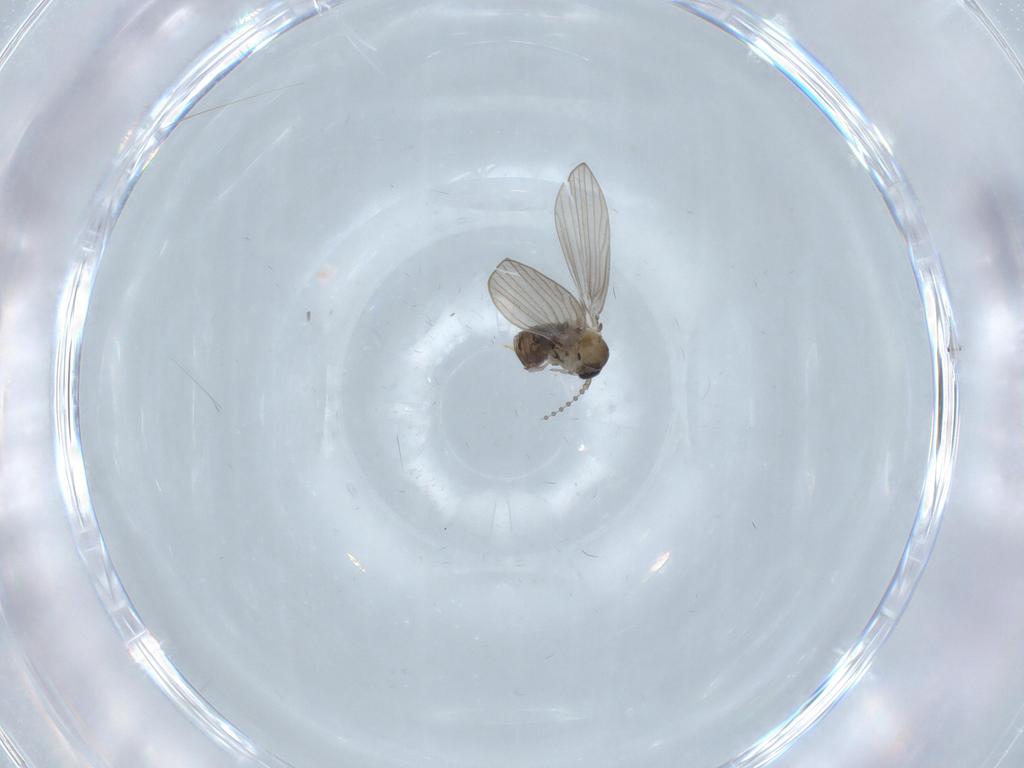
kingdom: Animalia
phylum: Arthropoda
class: Insecta
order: Diptera
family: Psychodidae
